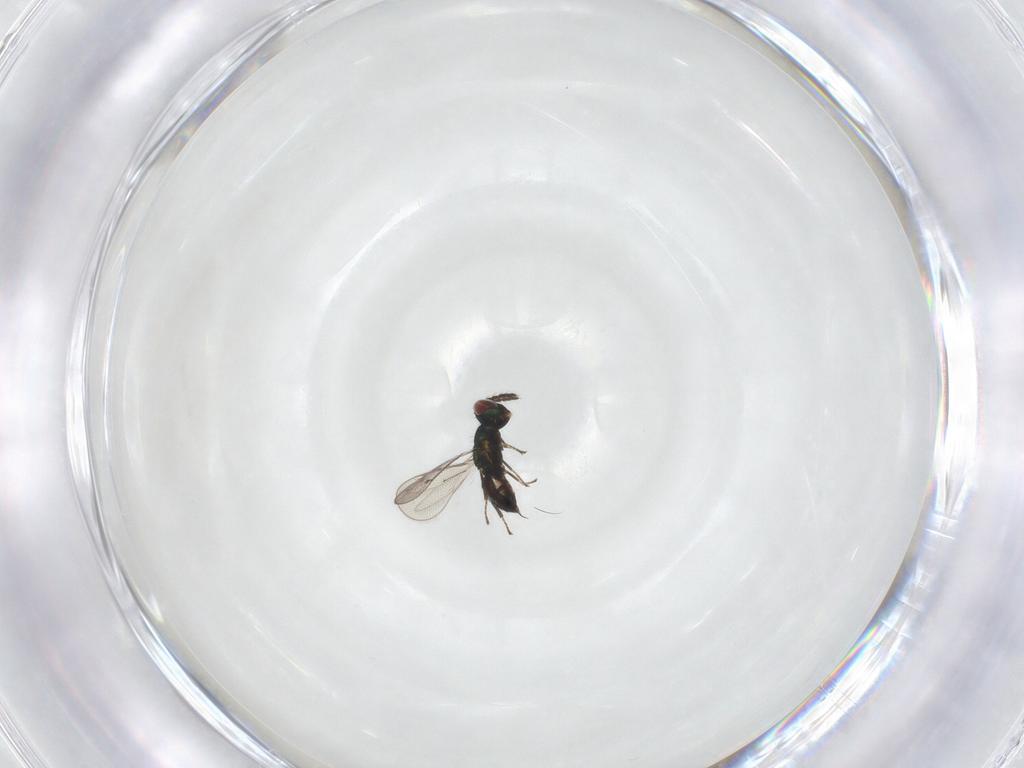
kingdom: Animalia
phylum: Arthropoda
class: Insecta
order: Hymenoptera
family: Eulophidae
